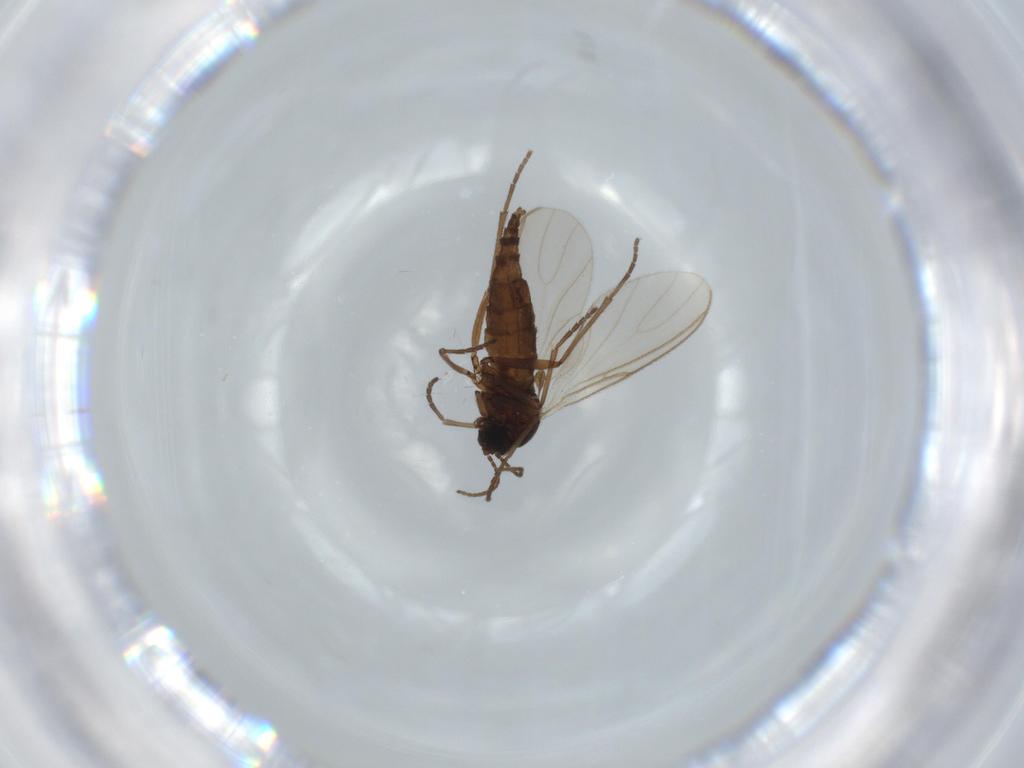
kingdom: Animalia
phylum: Arthropoda
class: Insecta
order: Diptera
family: Sciaridae
